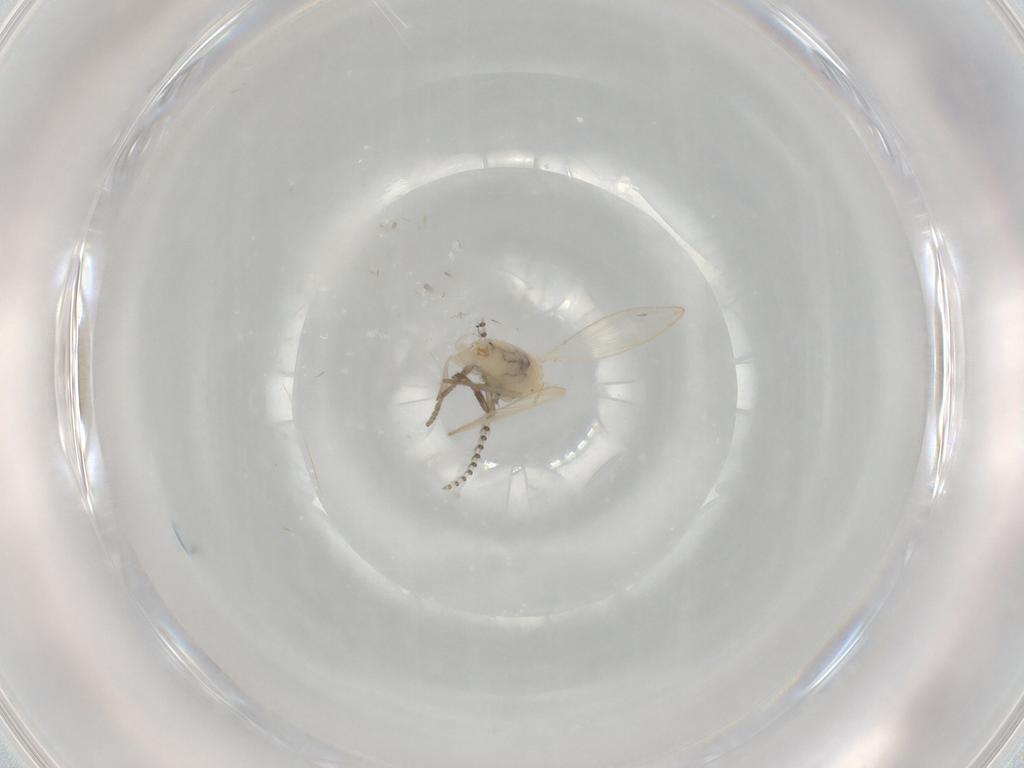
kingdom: Animalia
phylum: Arthropoda
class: Insecta
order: Diptera
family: Psychodidae
